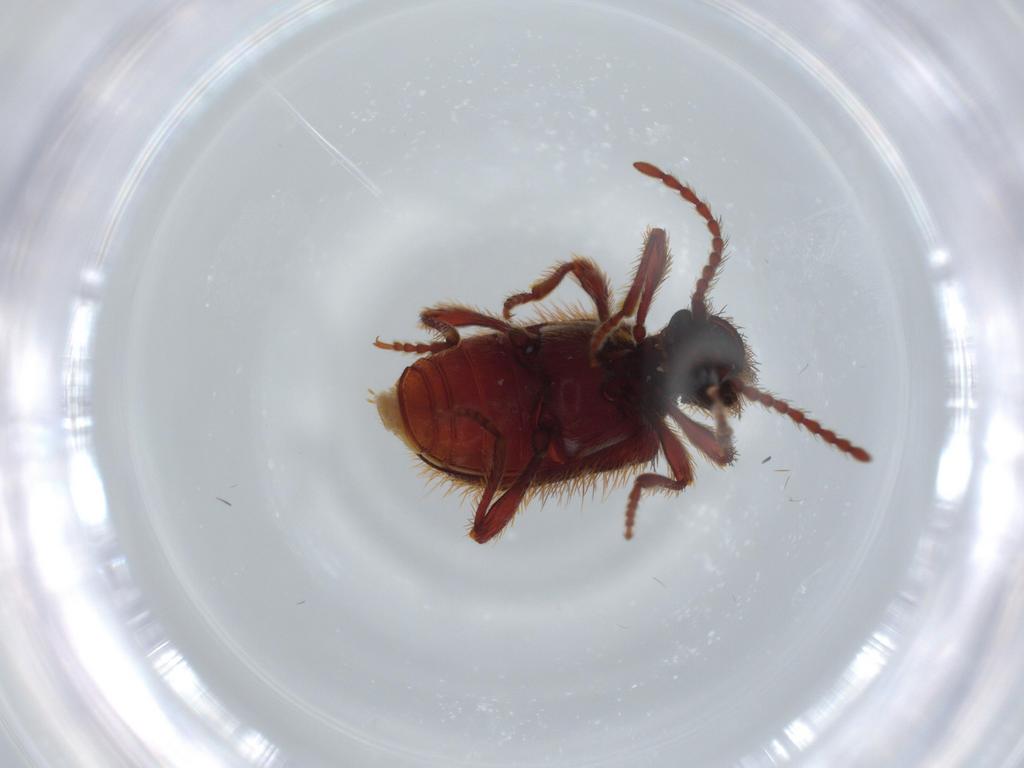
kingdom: Animalia
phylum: Arthropoda
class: Insecta
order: Coleoptera
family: Ptinidae
